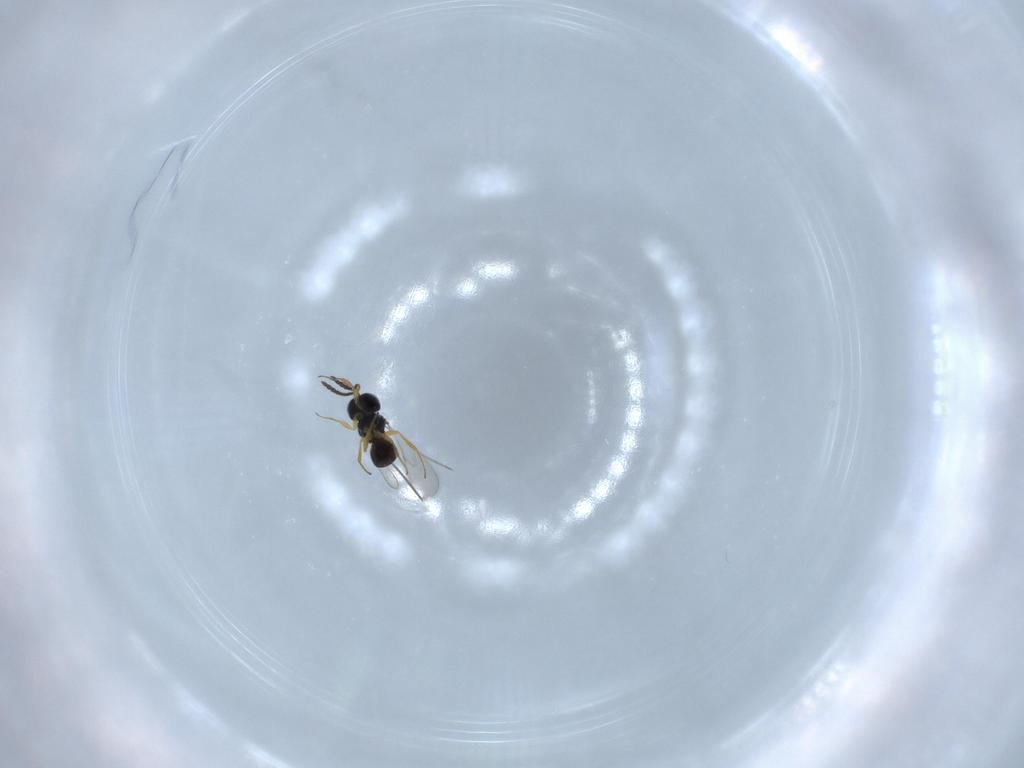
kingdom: Animalia
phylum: Arthropoda
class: Insecta
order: Hymenoptera
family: Scelionidae
